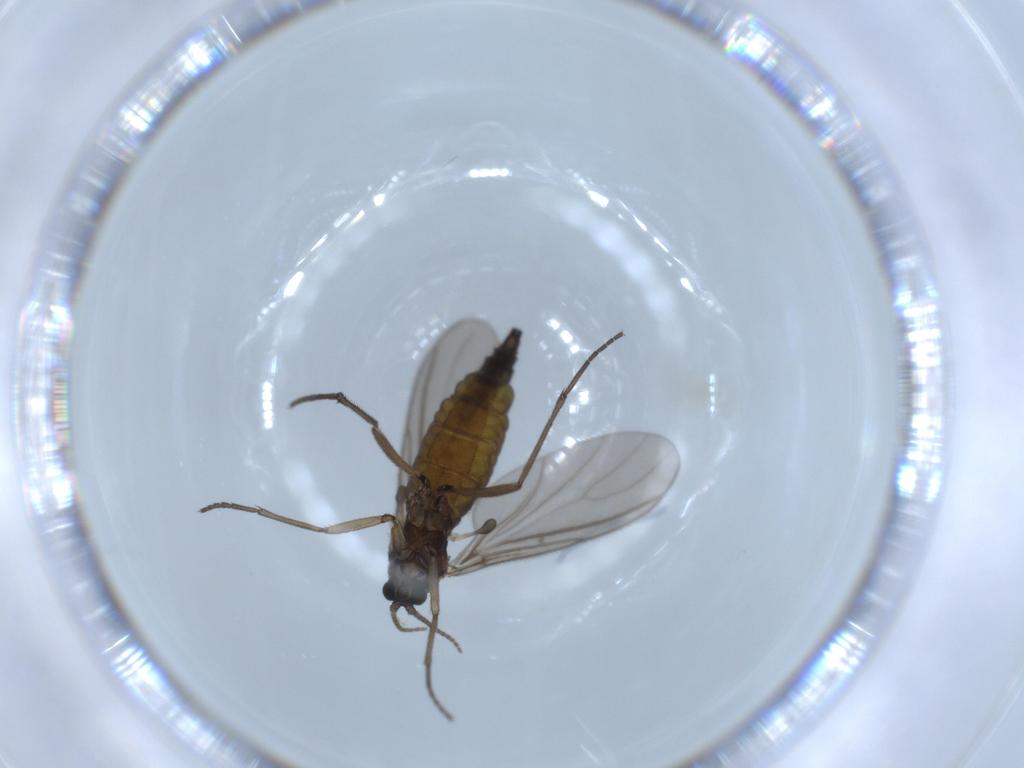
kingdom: Animalia
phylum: Arthropoda
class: Insecta
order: Diptera
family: Sciaridae
